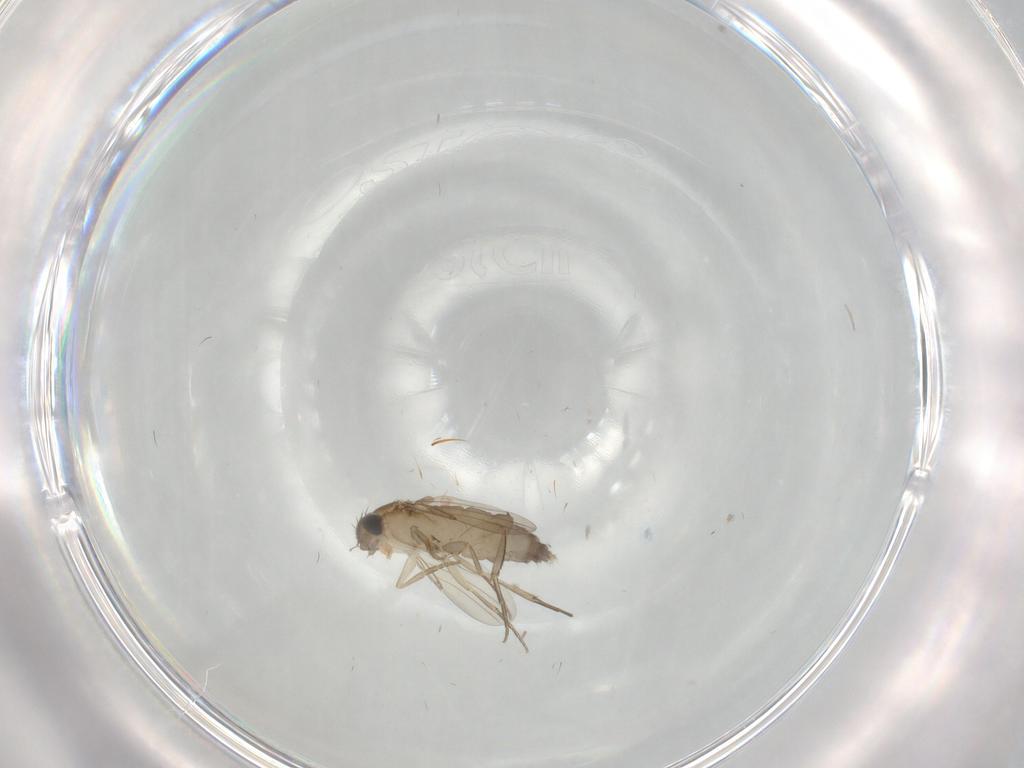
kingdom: Animalia
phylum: Arthropoda
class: Insecta
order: Diptera
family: Phoridae
